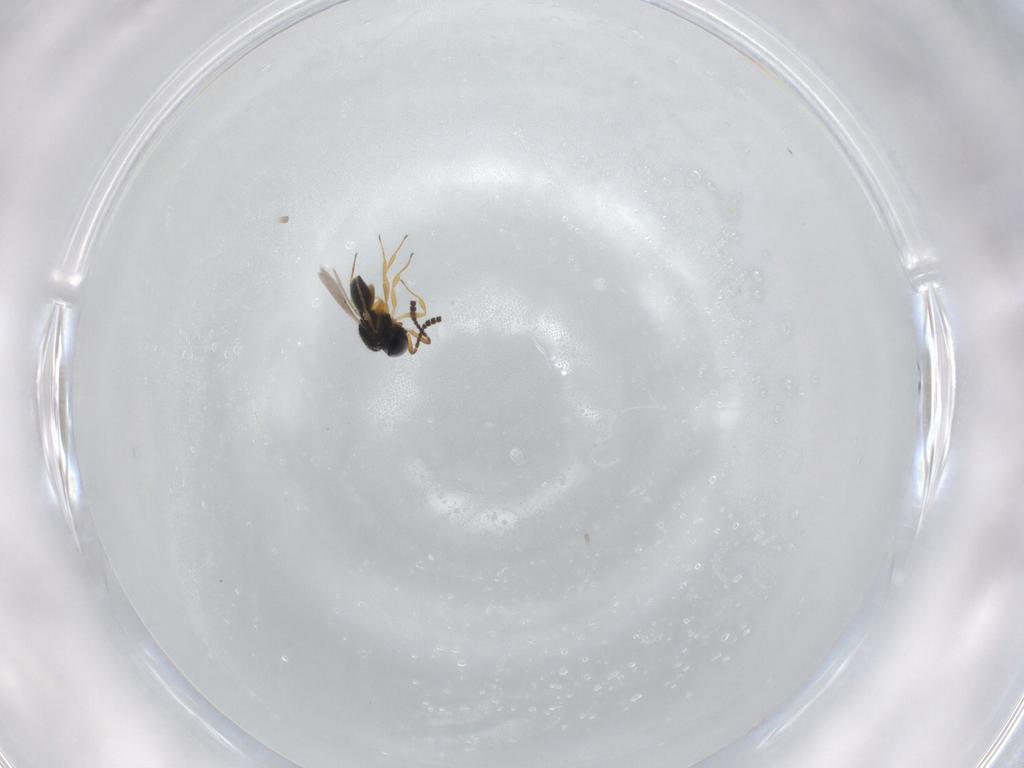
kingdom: Animalia
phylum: Arthropoda
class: Insecta
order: Hymenoptera
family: Scelionidae
